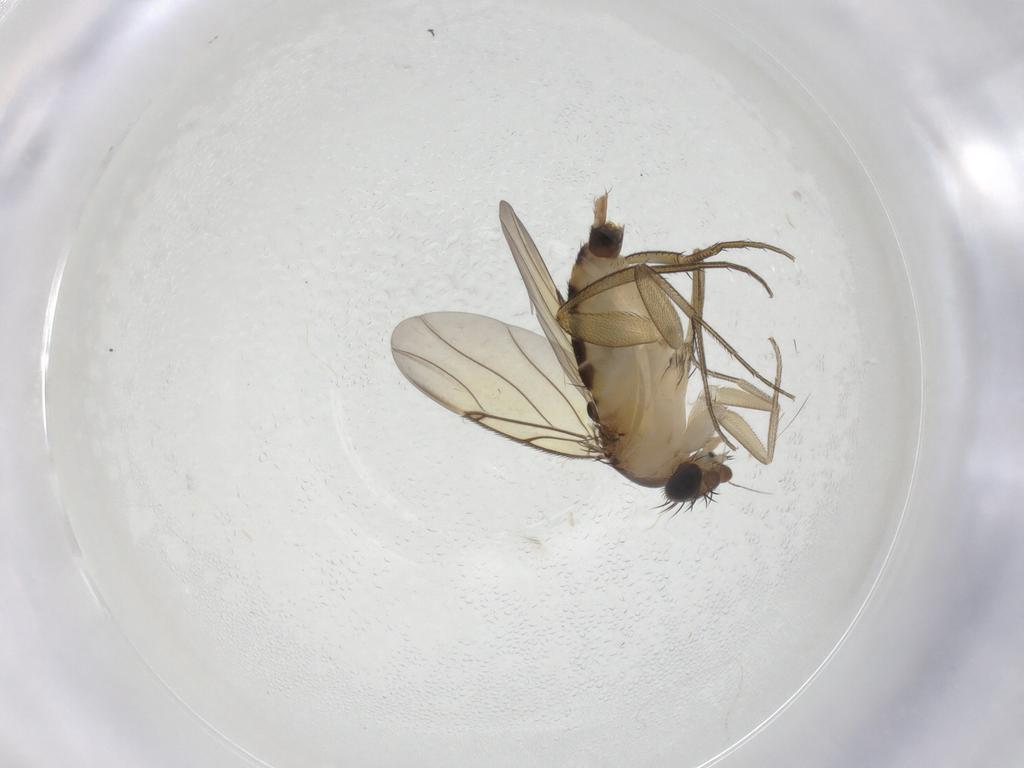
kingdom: Animalia
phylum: Arthropoda
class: Insecta
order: Diptera
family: Phoridae
